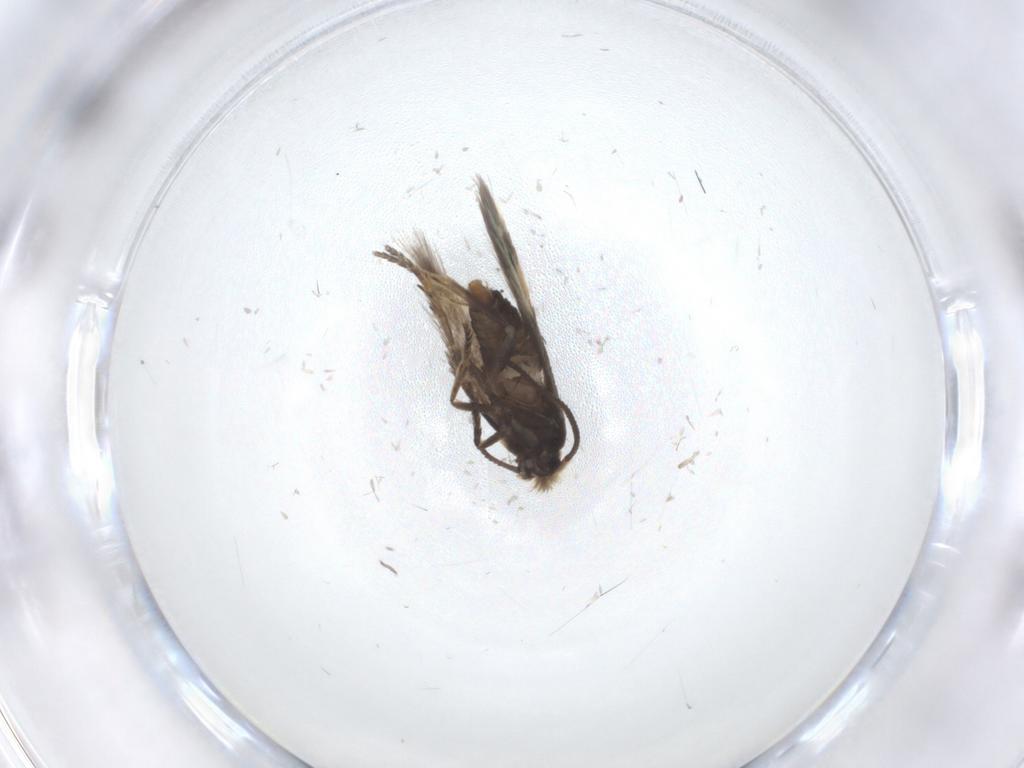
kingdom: Animalia
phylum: Arthropoda
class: Insecta
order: Lepidoptera
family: Nepticulidae
